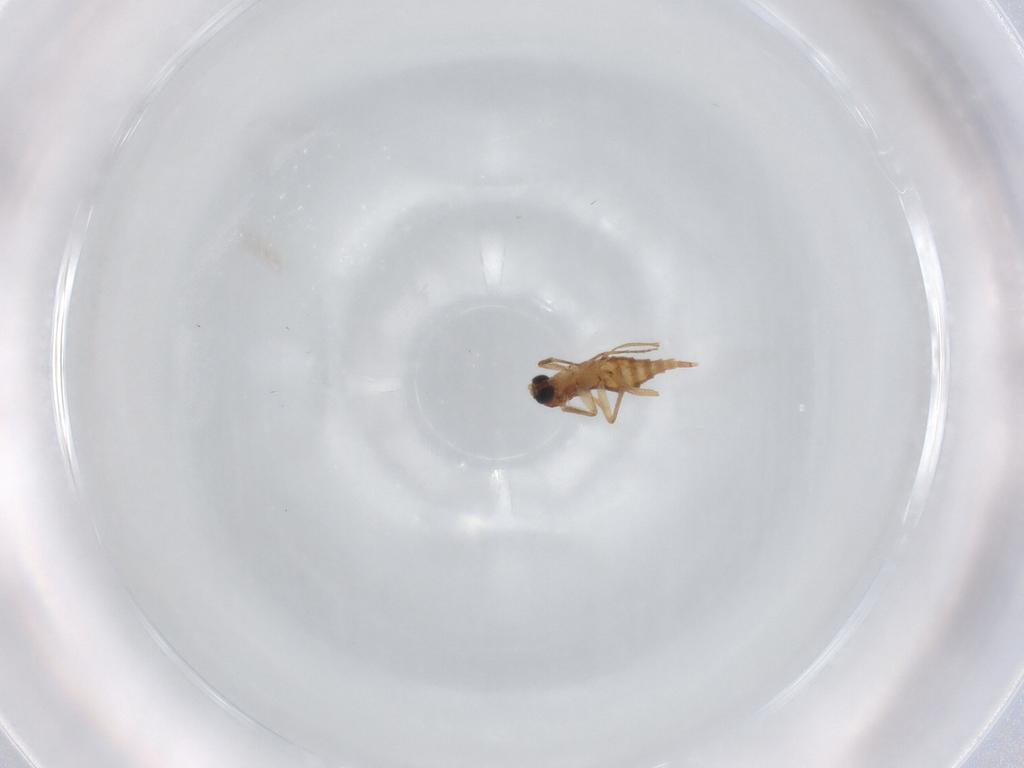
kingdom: Animalia
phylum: Arthropoda
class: Insecta
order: Diptera
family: Sciaridae
